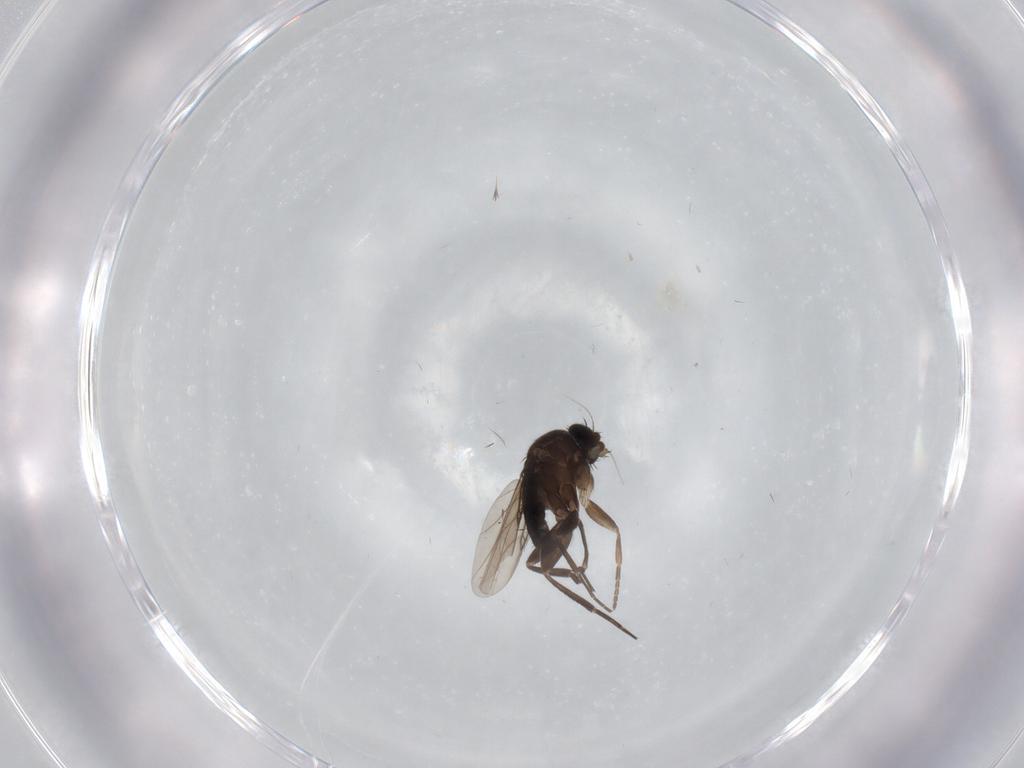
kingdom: Animalia
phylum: Arthropoda
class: Insecta
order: Diptera
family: Phoridae
